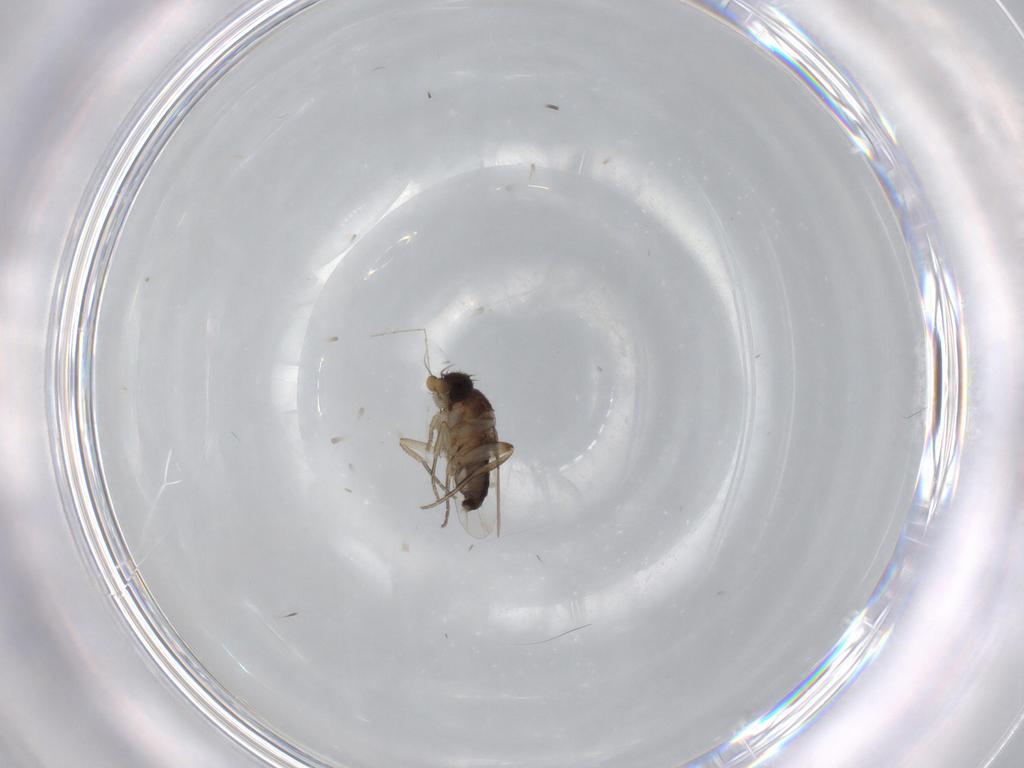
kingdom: Animalia
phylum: Arthropoda
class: Insecta
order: Diptera
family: Phoridae
